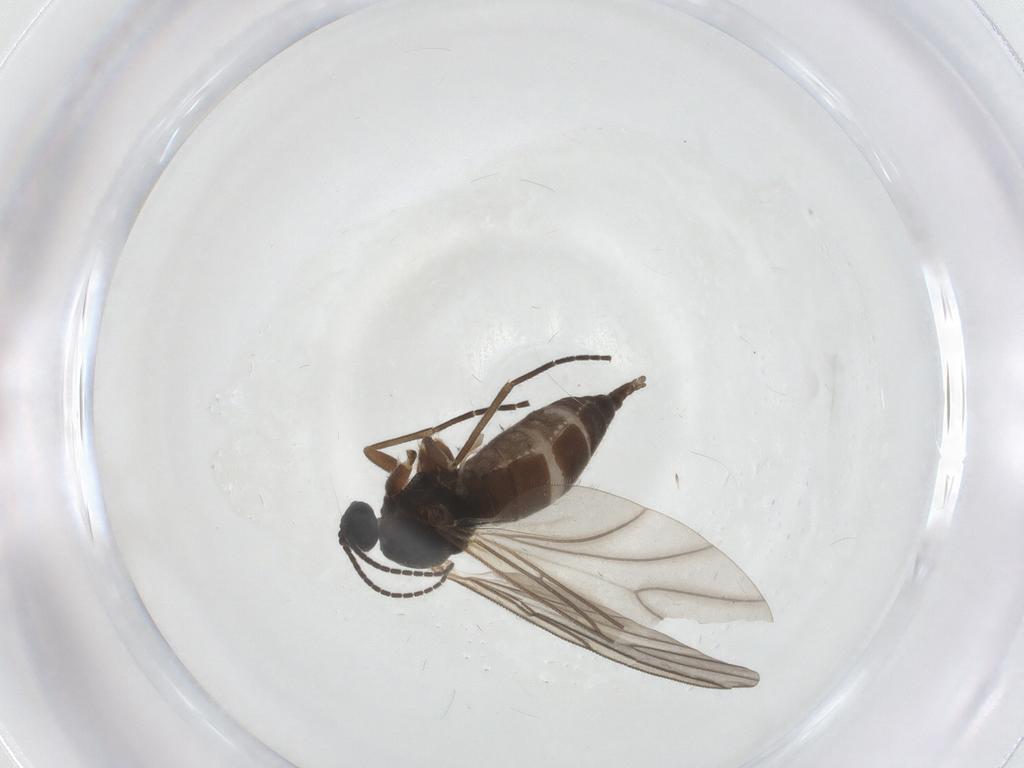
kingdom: Animalia
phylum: Arthropoda
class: Insecta
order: Diptera
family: Sciaridae
